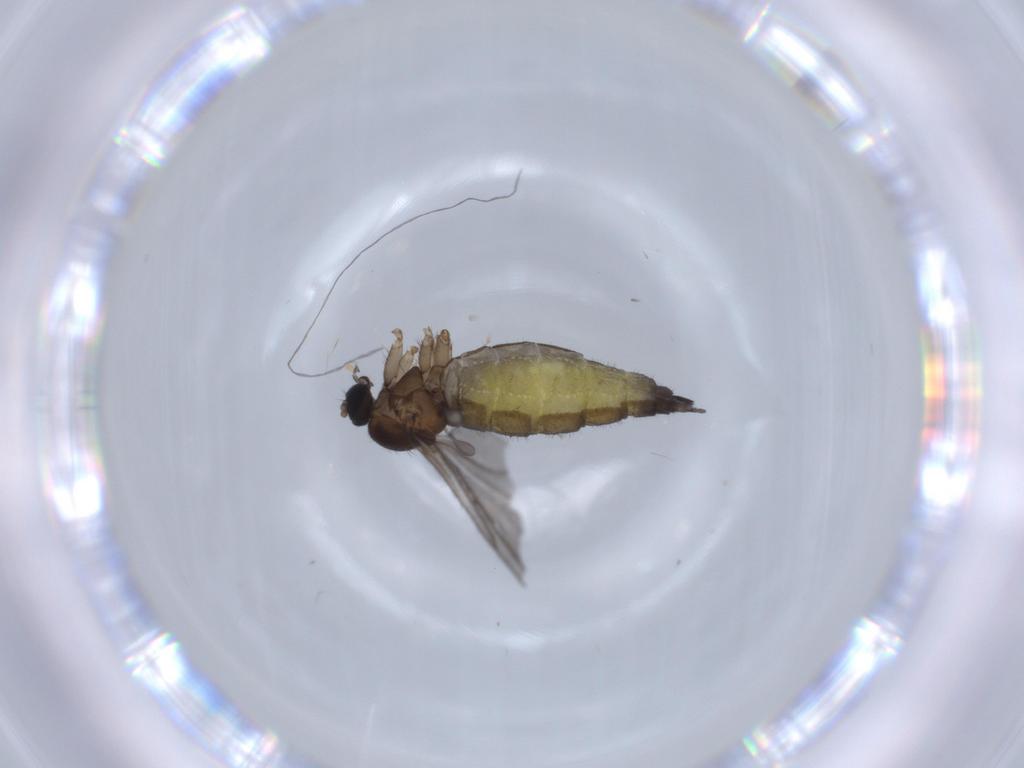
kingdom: Animalia
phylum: Arthropoda
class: Insecta
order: Diptera
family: Sciaridae
